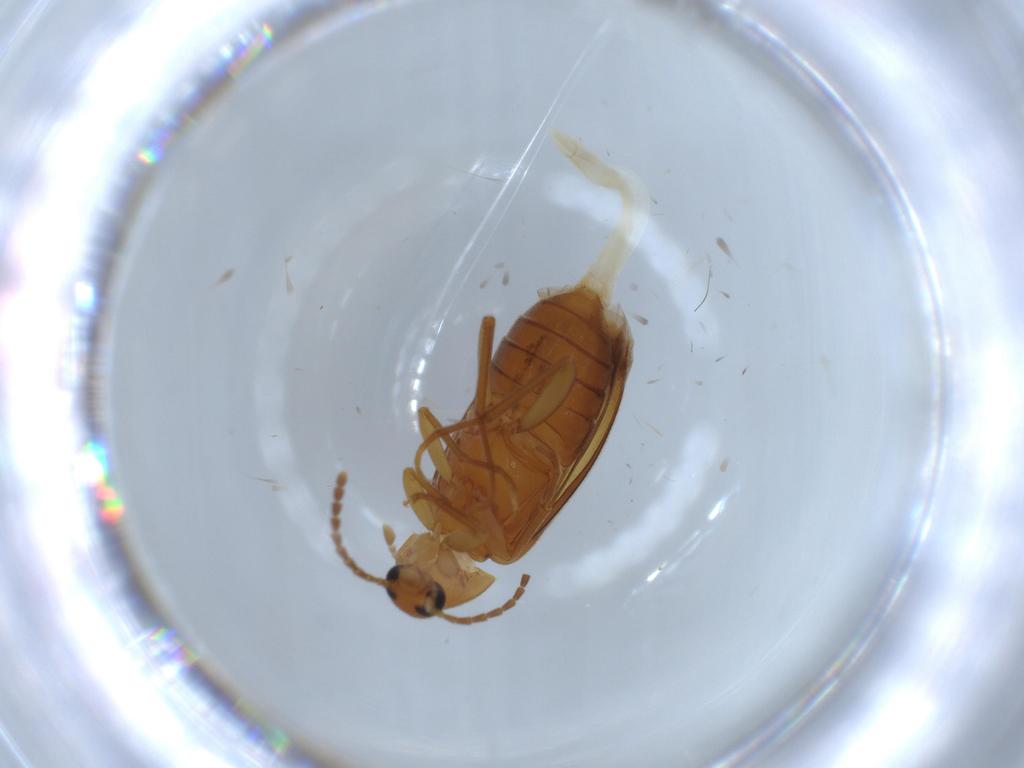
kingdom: Animalia
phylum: Arthropoda
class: Insecta
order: Coleoptera
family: Scraptiidae
